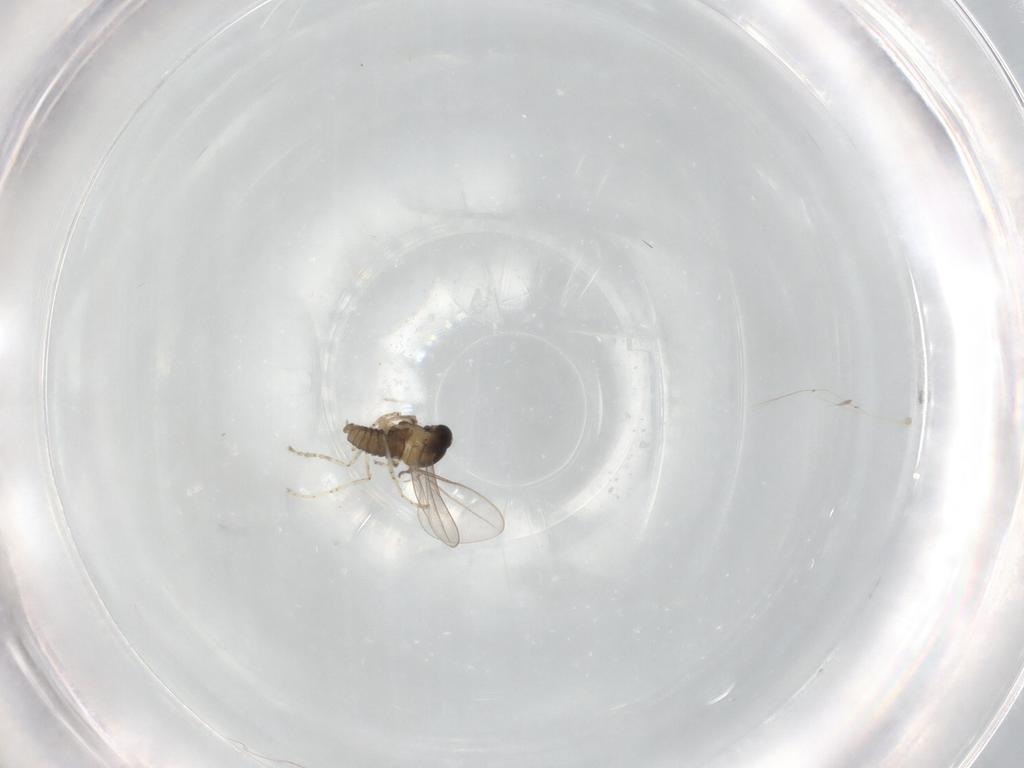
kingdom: Animalia
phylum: Arthropoda
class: Insecta
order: Diptera
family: Cecidomyiidae
